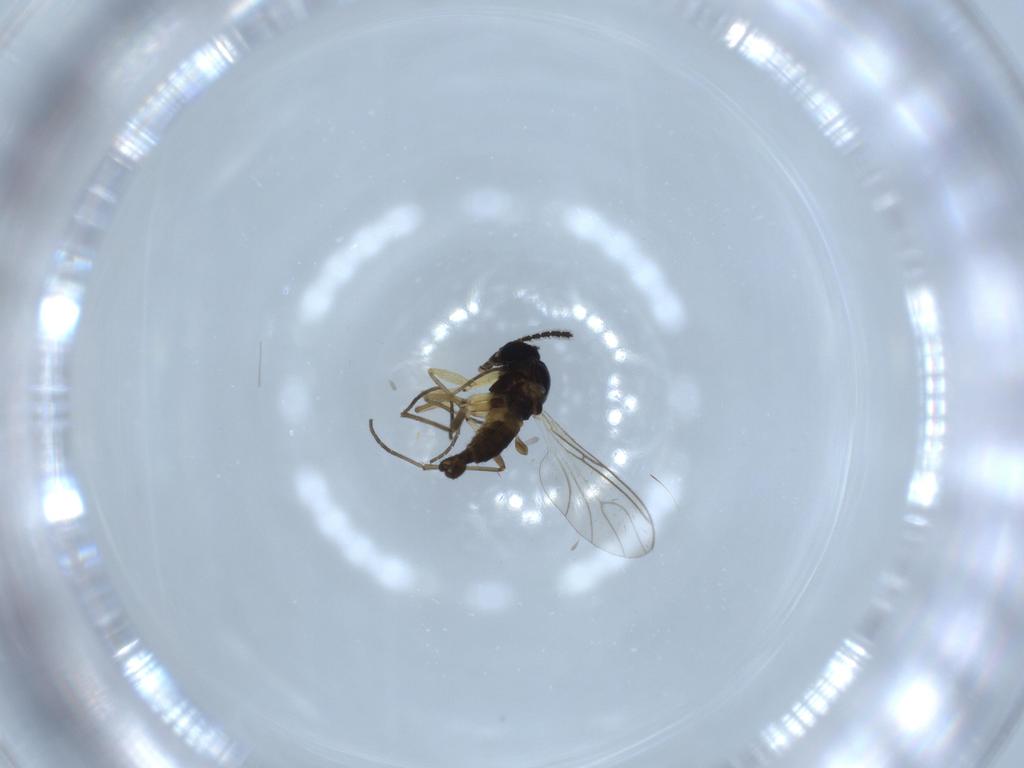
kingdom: Animalia
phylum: Arthropoda
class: Insecta
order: Diptera
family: Sciaridae
